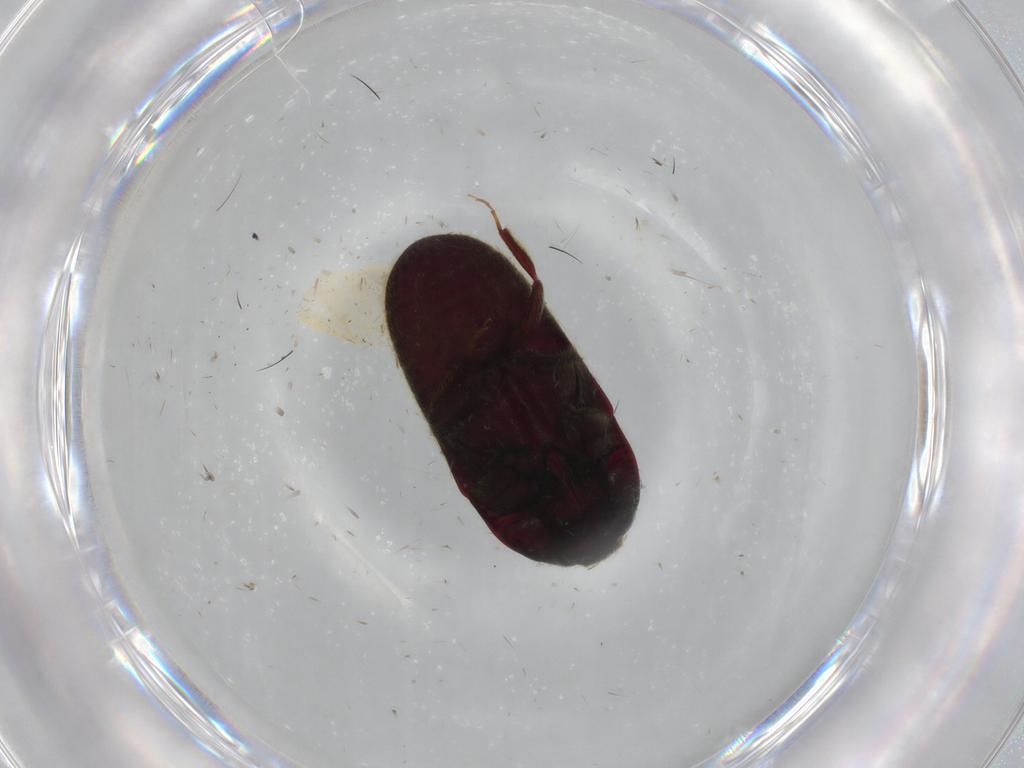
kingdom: Animalia
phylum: Arthropoda
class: Insecta
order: Coleoptera
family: Throscidae
